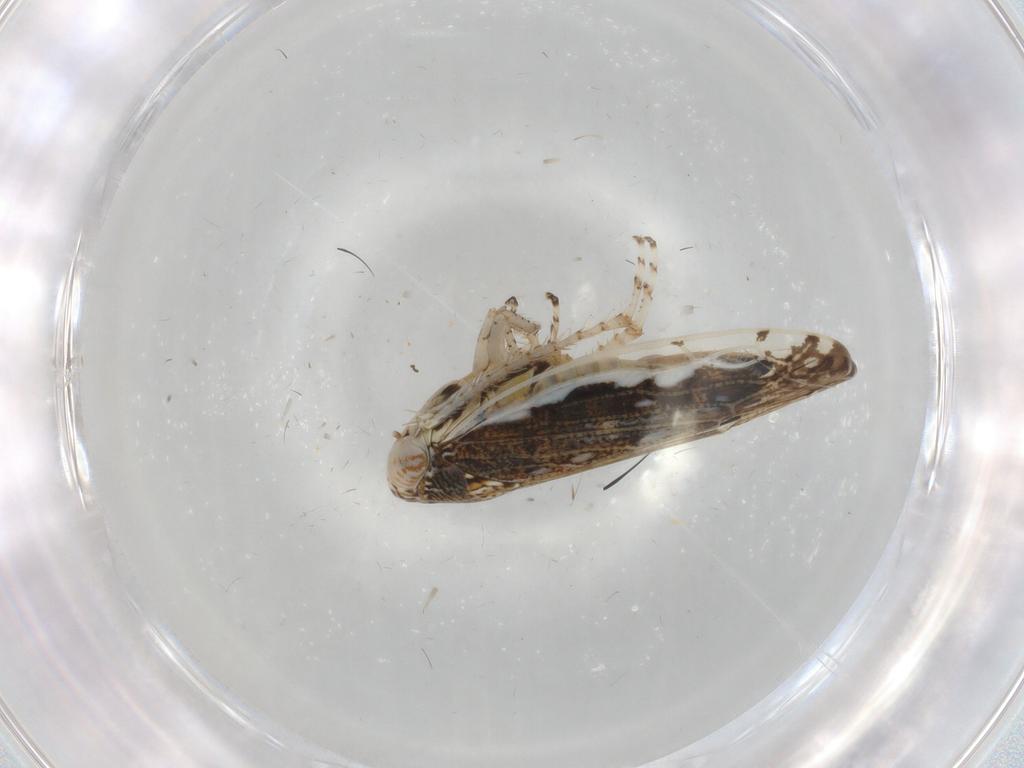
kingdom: Animalia
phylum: Arthropoda
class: Insecta
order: Hemiptera
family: Cicadellidae
